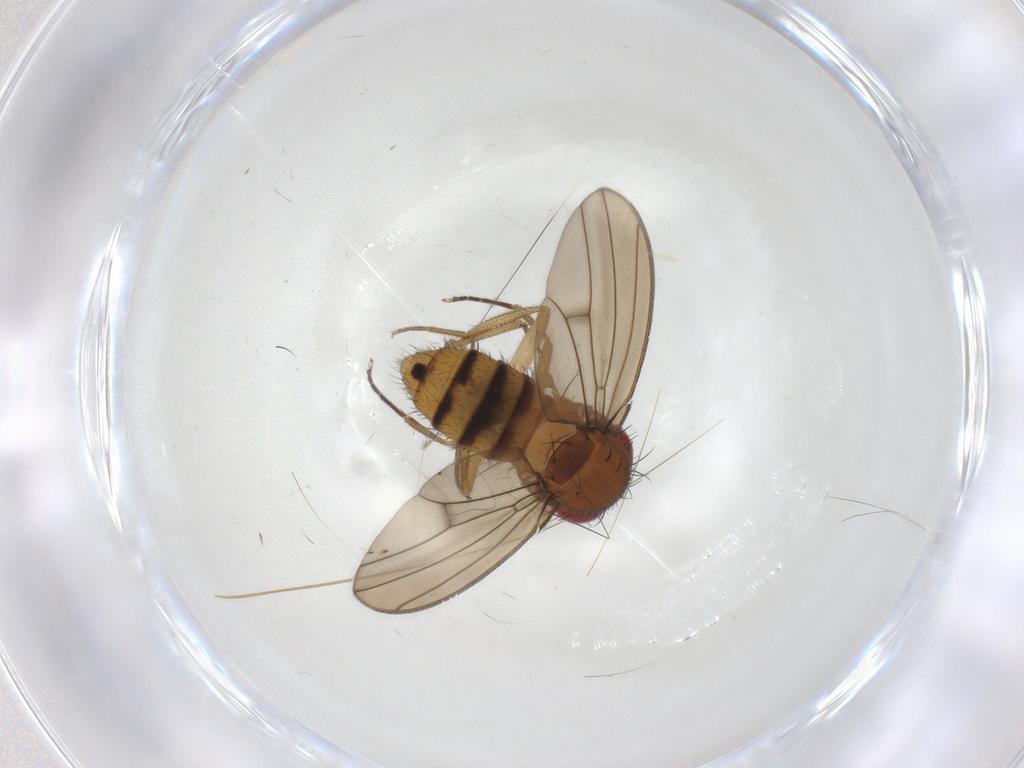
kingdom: Animalia
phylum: Arthropoda
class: Insecta
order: Diptera
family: Drosophilidae
